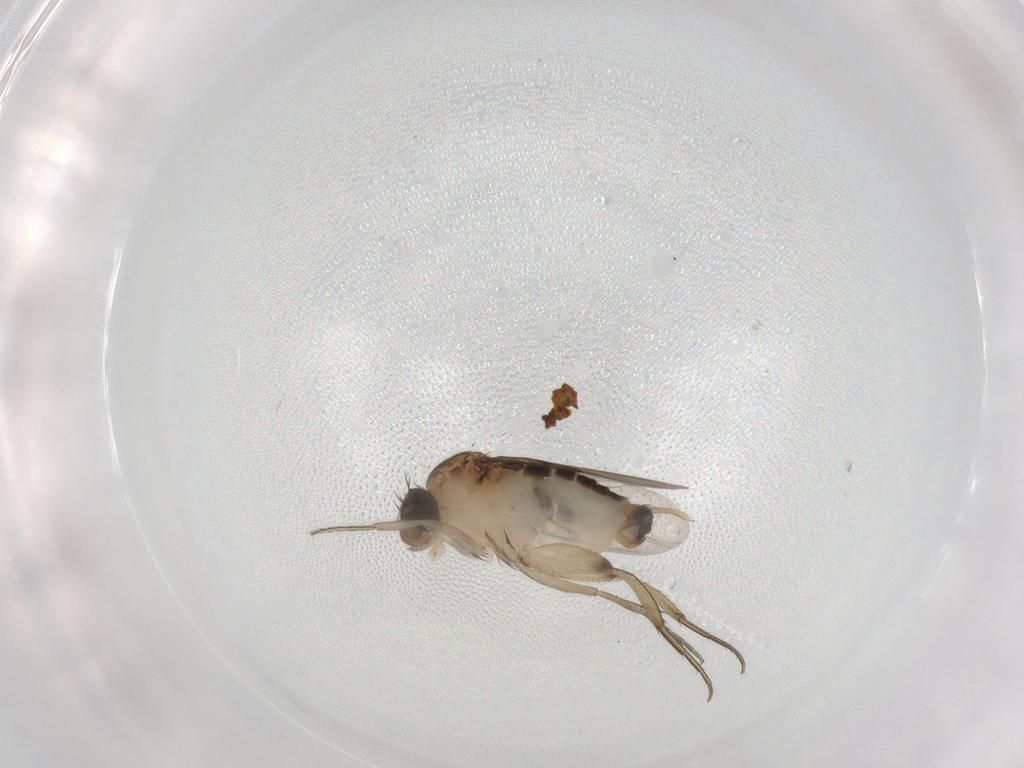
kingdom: Animalia
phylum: Arthropoda
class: Insecta
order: Diptera
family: Phoridae
